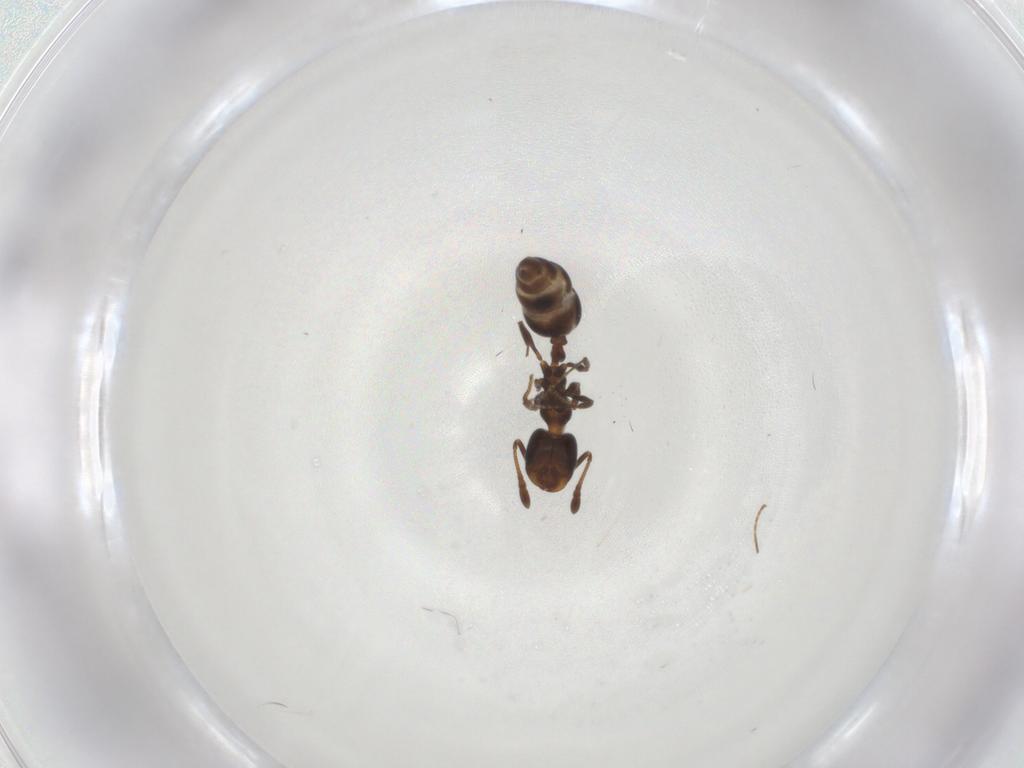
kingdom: Animalia
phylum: Arthropoda
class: Insecta
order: Hymenoptera
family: Formicidae
